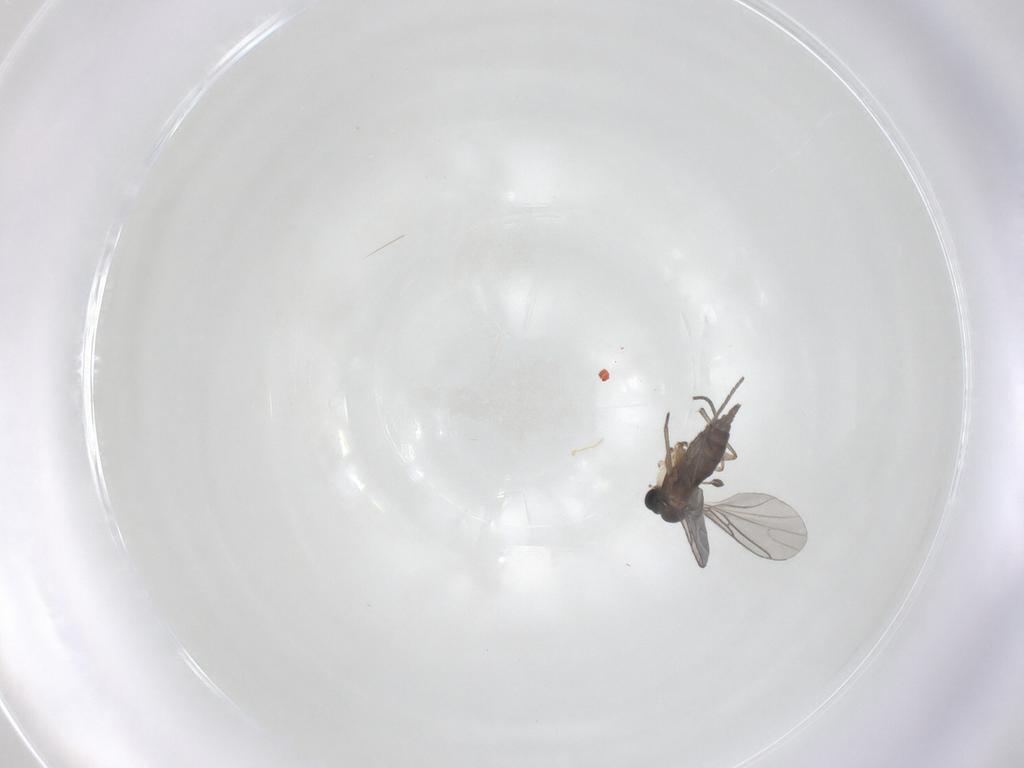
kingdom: Animalia
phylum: Arthropoda
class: Insecta
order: Diptera
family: Sciaridae
